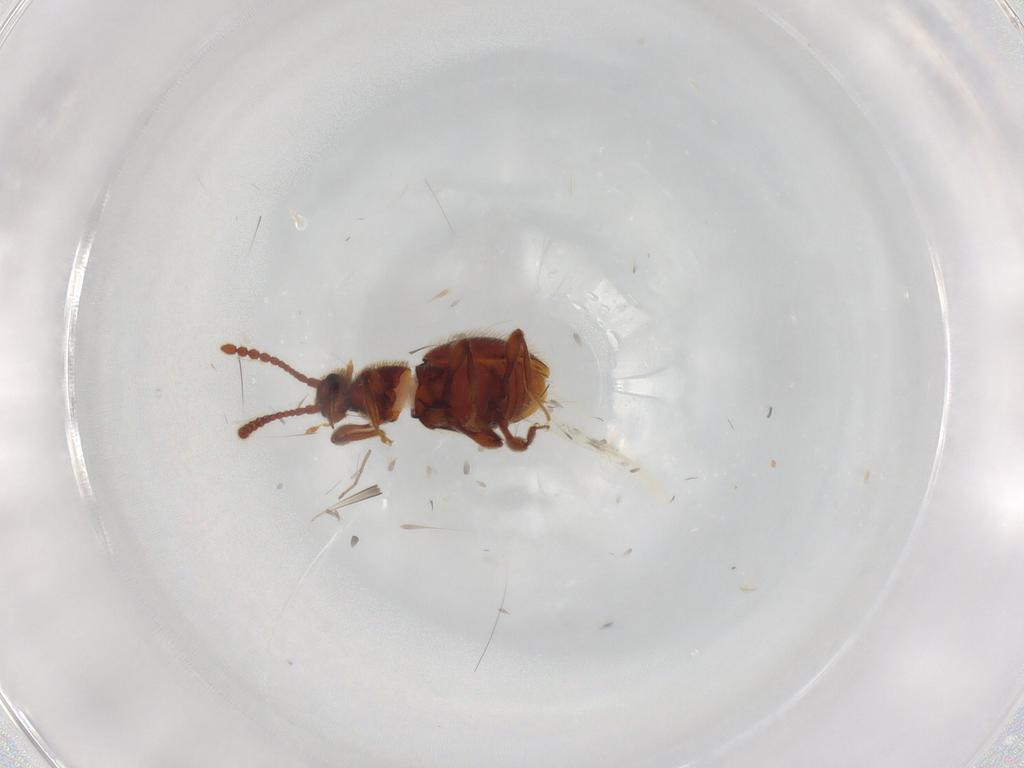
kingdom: Animalia
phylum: Arthropoda
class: Insecta
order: Coleoptera
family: Staphylinidae
